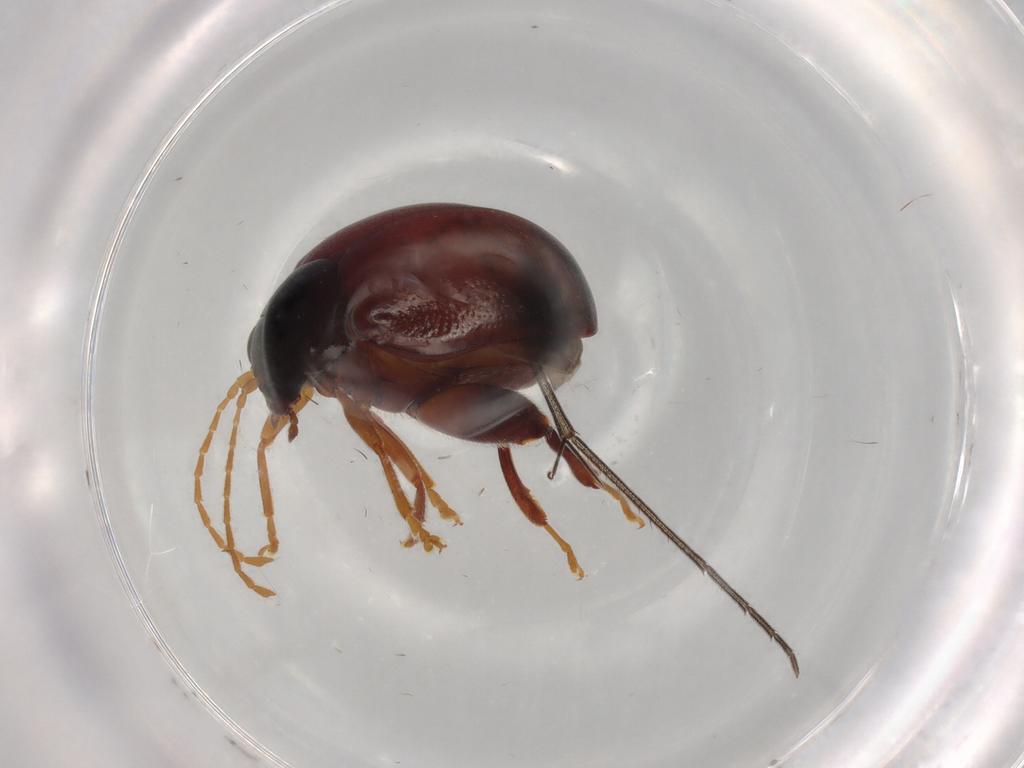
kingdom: Animalia
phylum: Arthropoda
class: Insecta
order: Coleoptera
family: Chrysomelidae
